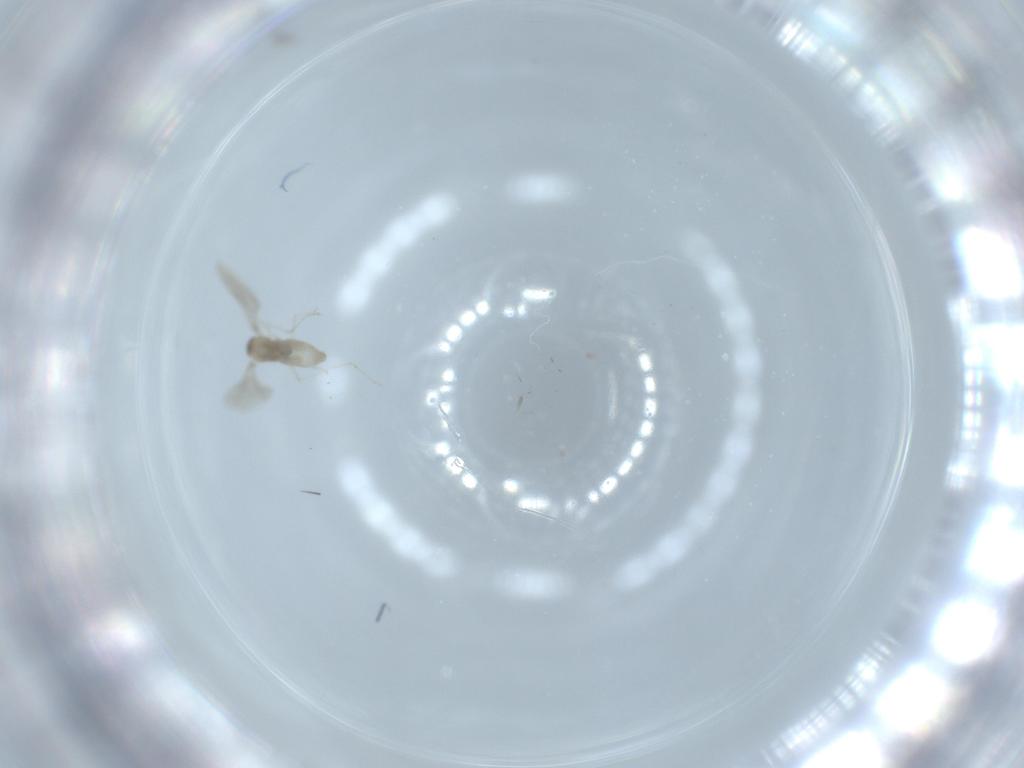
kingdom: Animalia
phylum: Arthropoda
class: Insecta
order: Diptera
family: Cecidomyiidae
